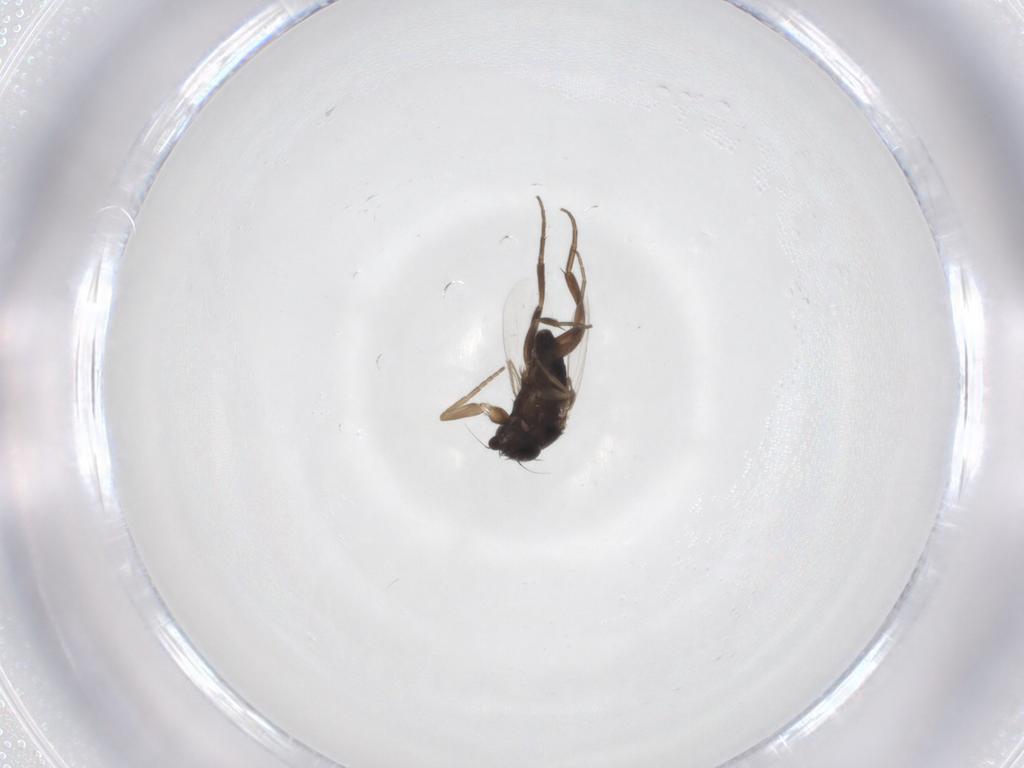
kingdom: Animalia
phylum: Arthropoda
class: Insecta
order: Diptera
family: Phoridae
